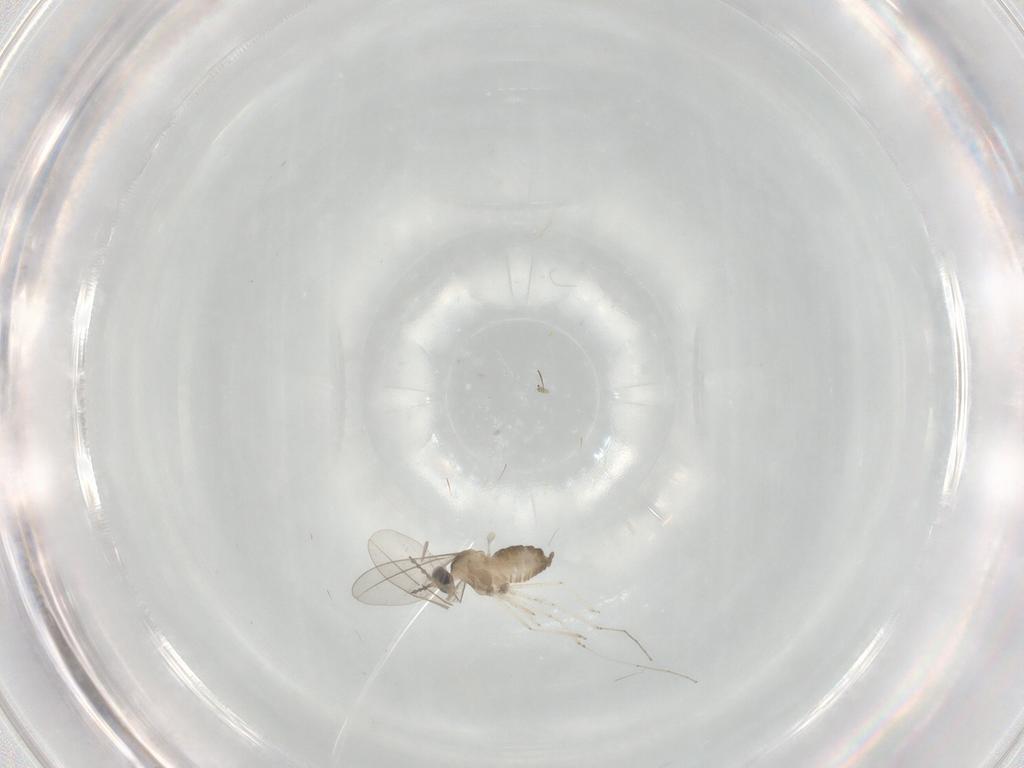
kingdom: Animalia
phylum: Arthropoda
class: Insecta
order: Diptera
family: Cecidomyiidae
